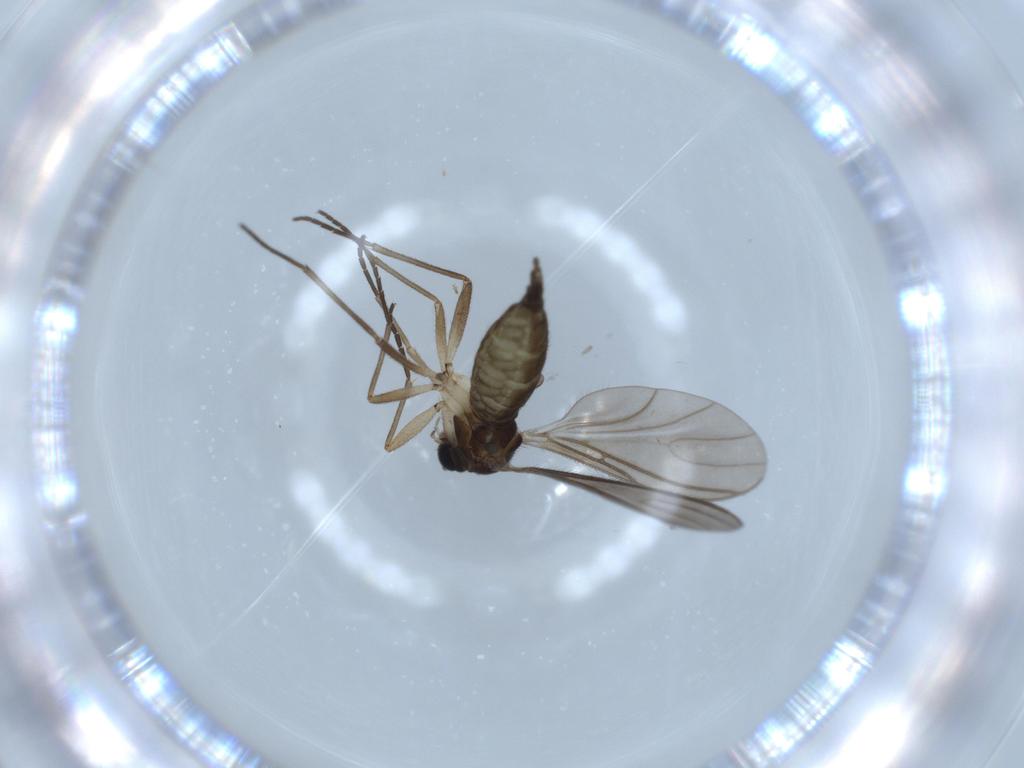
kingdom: Animalia
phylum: Arthropoda
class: Insecta
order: Diptera
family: Sciaridae
